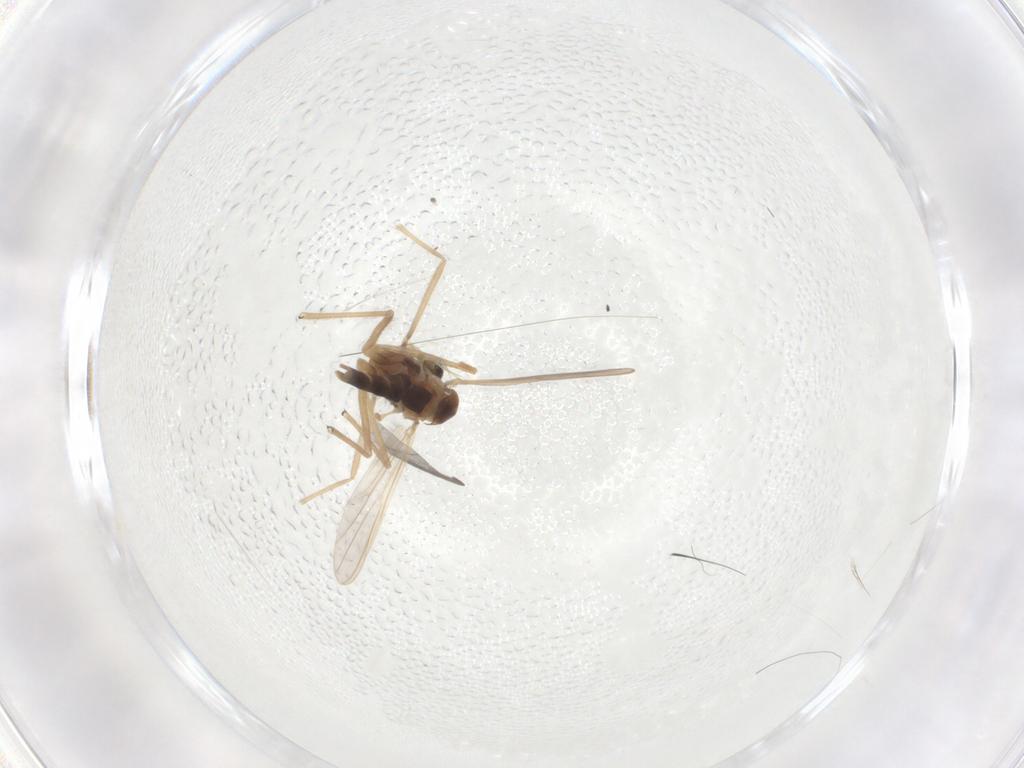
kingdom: Animalia
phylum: Arthropoda
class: Insecta
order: Diptera
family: Chironomidae
